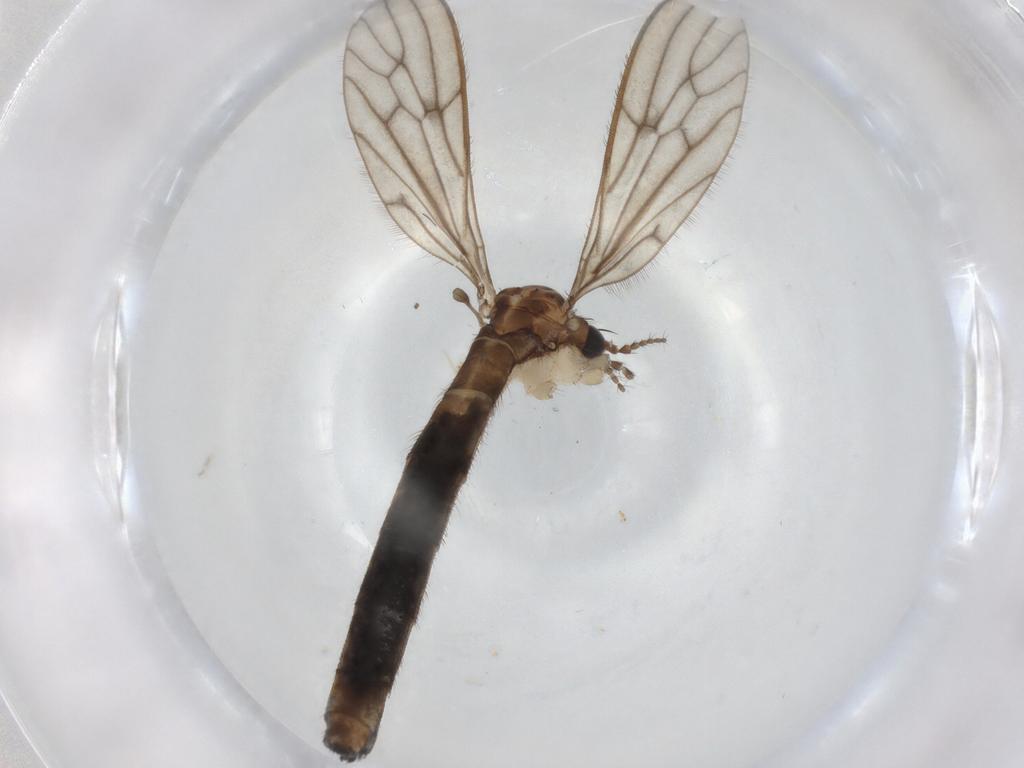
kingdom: Animalia
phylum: Arthropoda
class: Insecta
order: Diptera
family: Limoniidae
